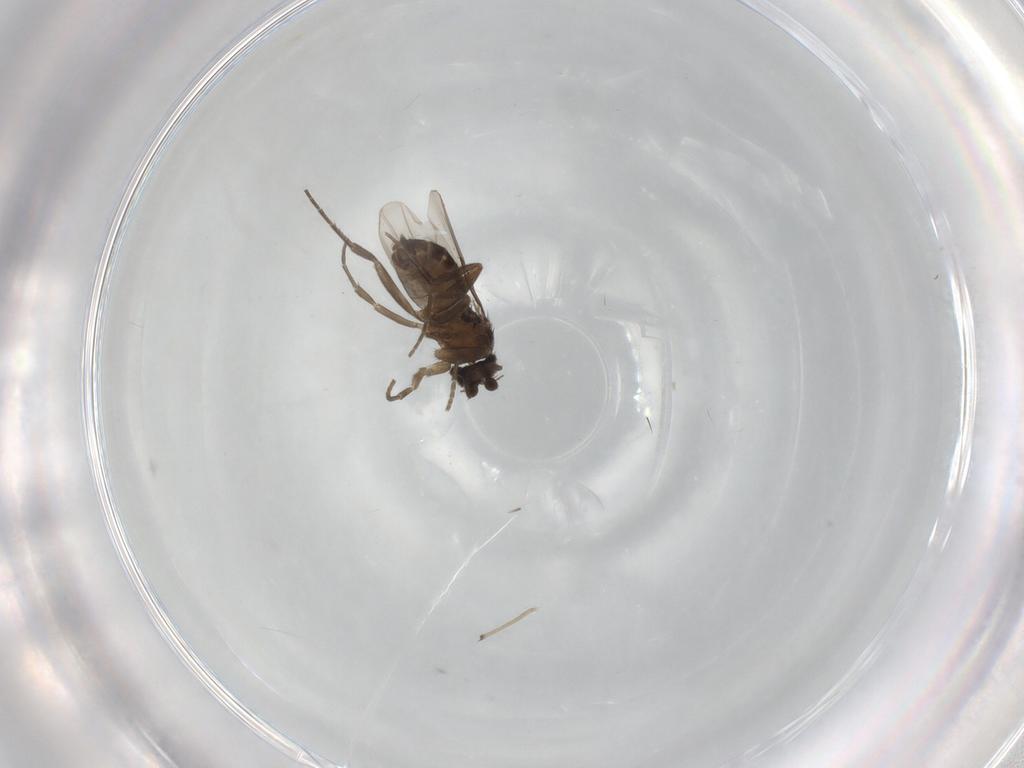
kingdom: Animalia
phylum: Arthropoda
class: Insecta
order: Diptera
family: Phoridae
